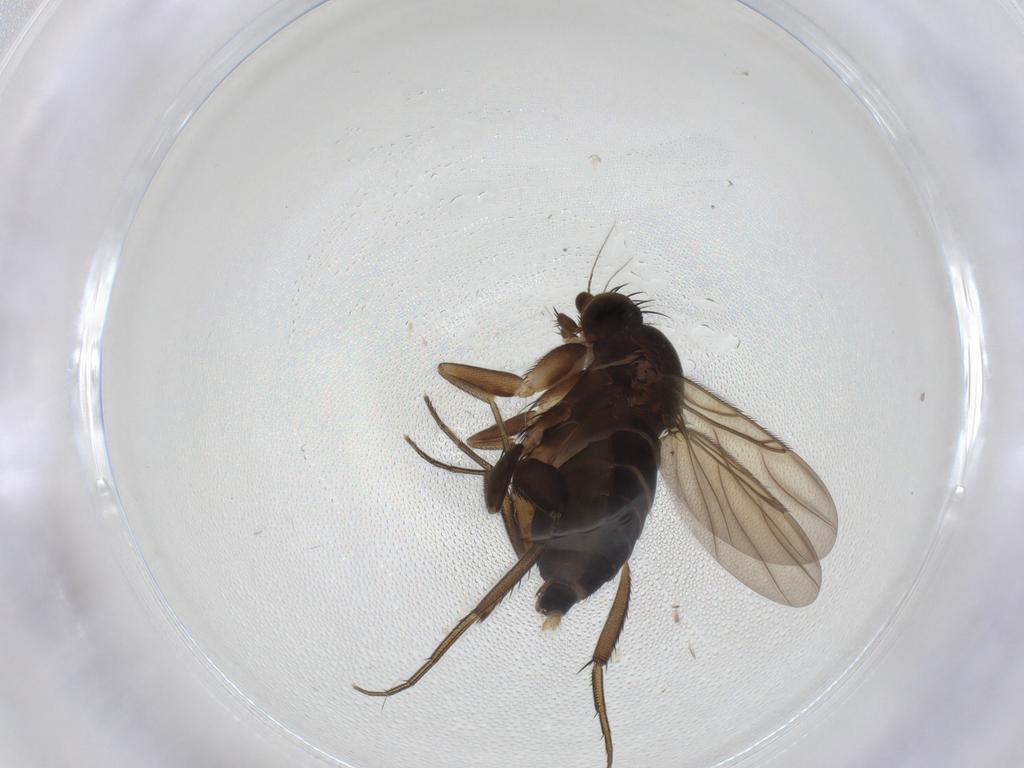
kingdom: Animalia
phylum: Arthropoda
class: Insecta
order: Diptera
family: Phoridae
